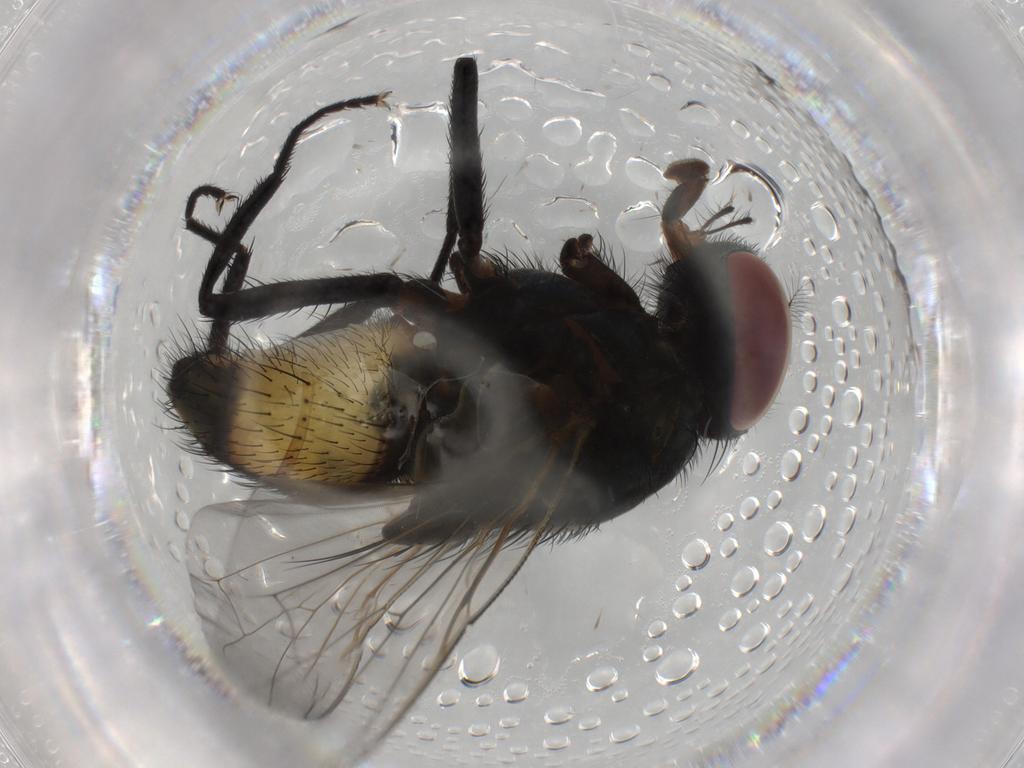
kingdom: Animalia
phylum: Arthropoda
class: Insecta
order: Diptera
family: Muscidae
